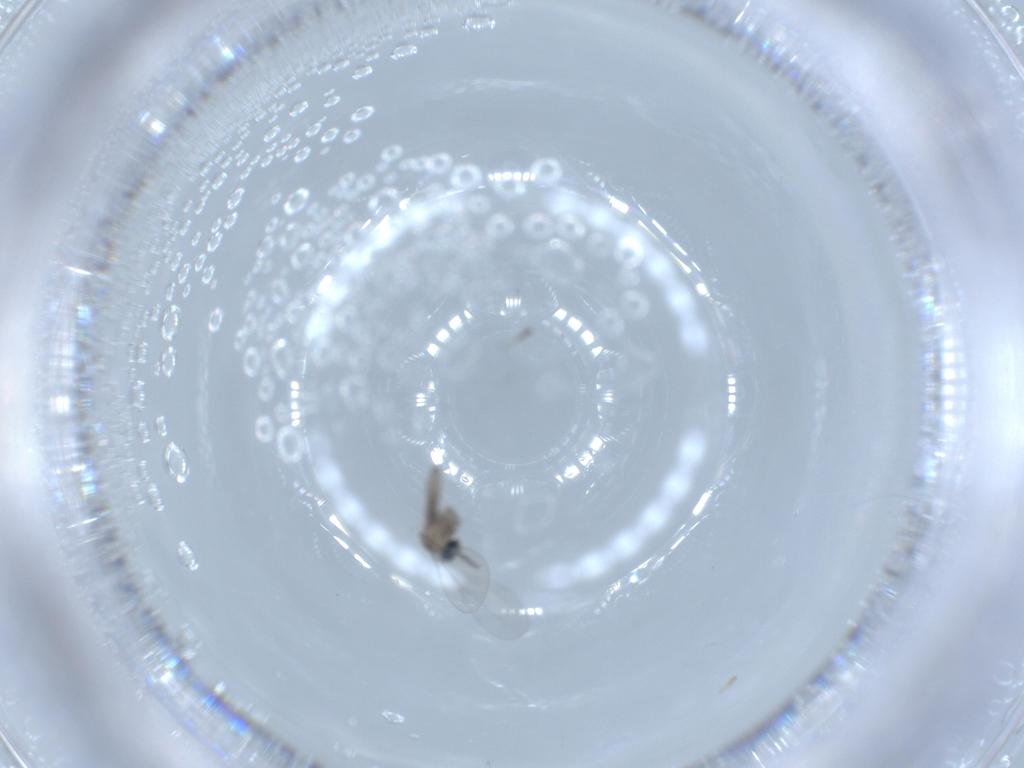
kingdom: Animalia
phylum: Arthropoda
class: Insecta
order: Diptera
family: Cecidomyiidae
